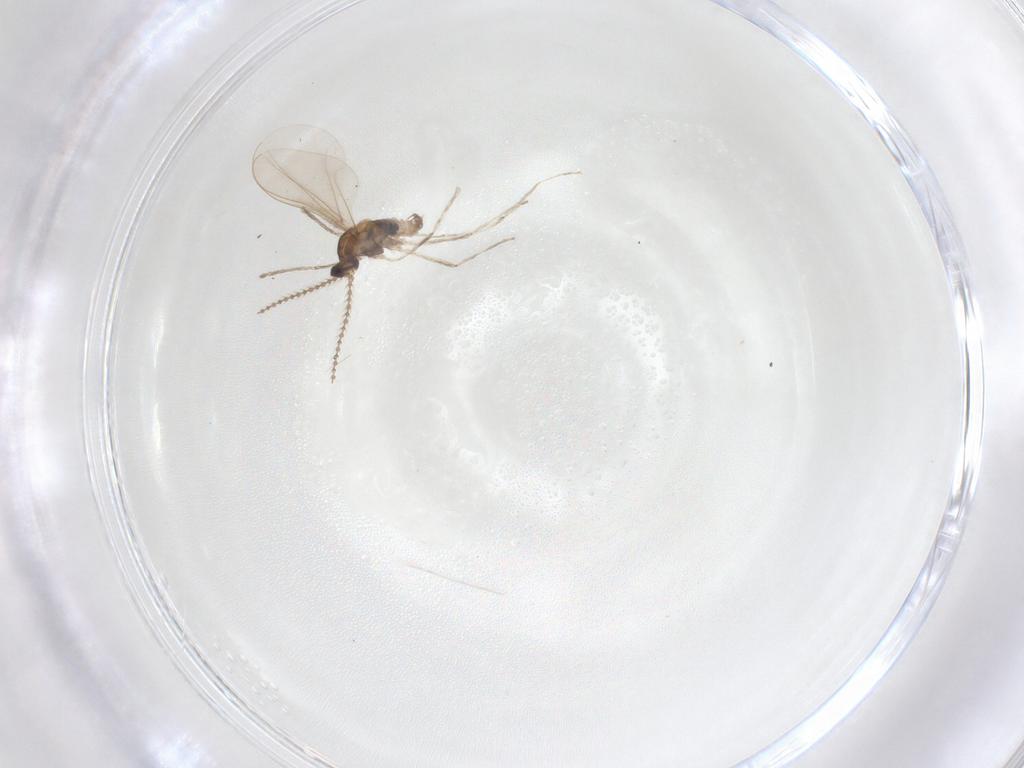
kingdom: Animalia
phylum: Arthropoda
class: Insecta
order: Diptera
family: Cecidomyiidae
